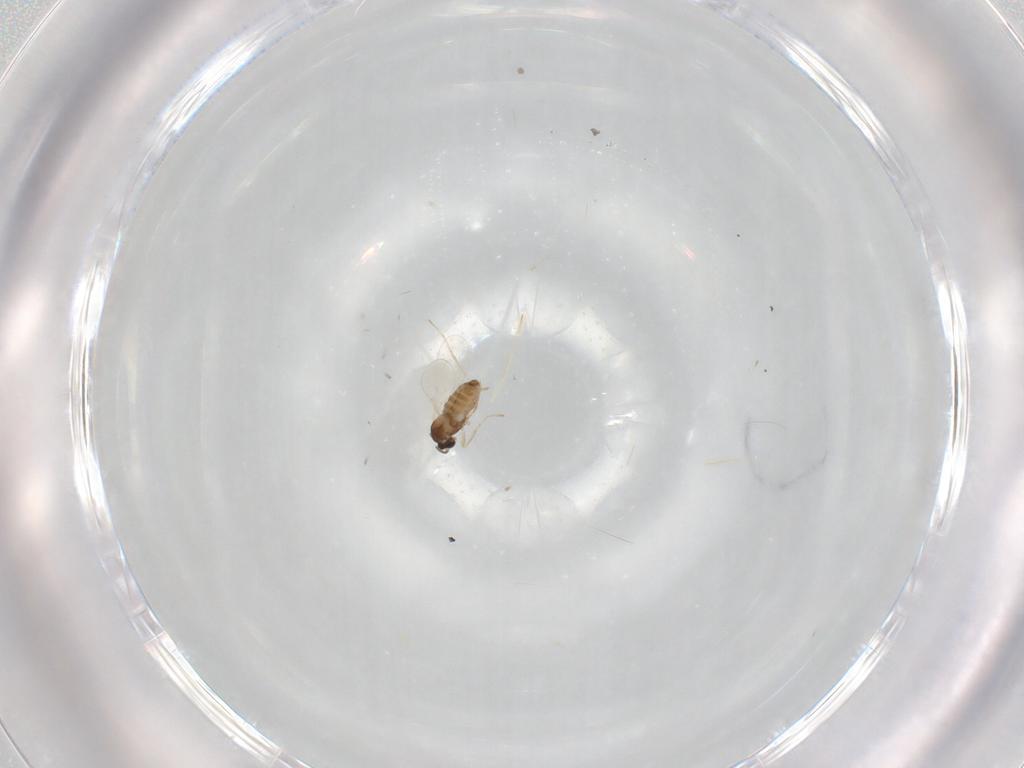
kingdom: Animalia
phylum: Arthropoda
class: Insecta
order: Diptera
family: Cecidomyiidae
